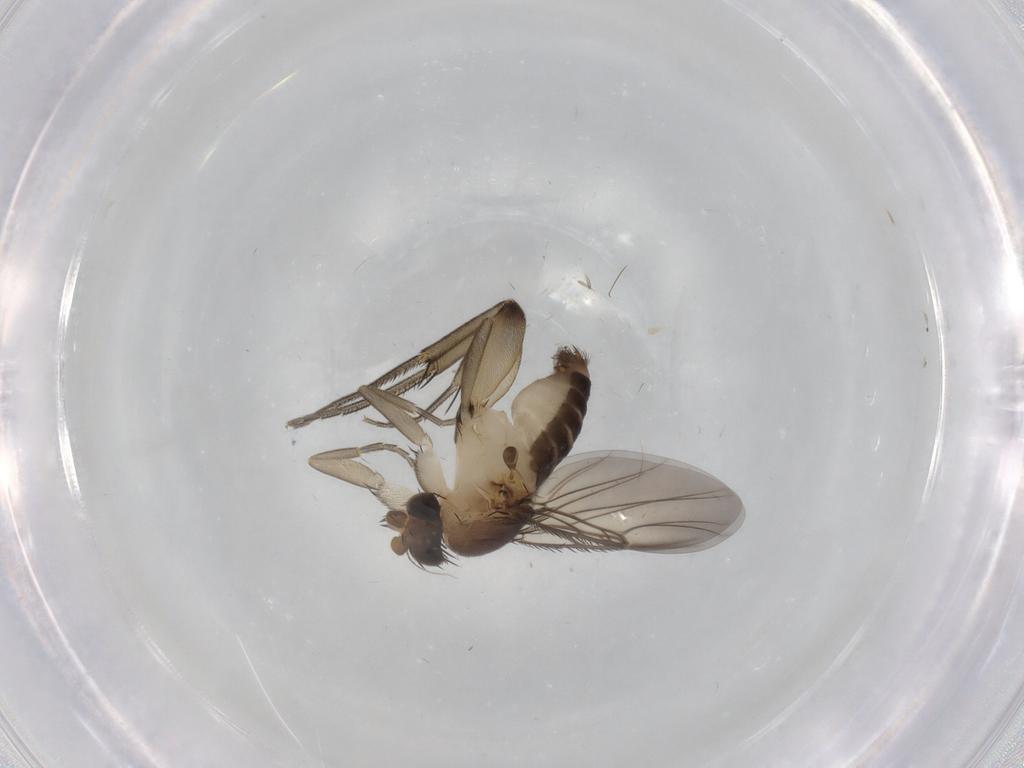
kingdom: Animalia
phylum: Arthropoda
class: Insecta
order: Diptera
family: Phoridae
